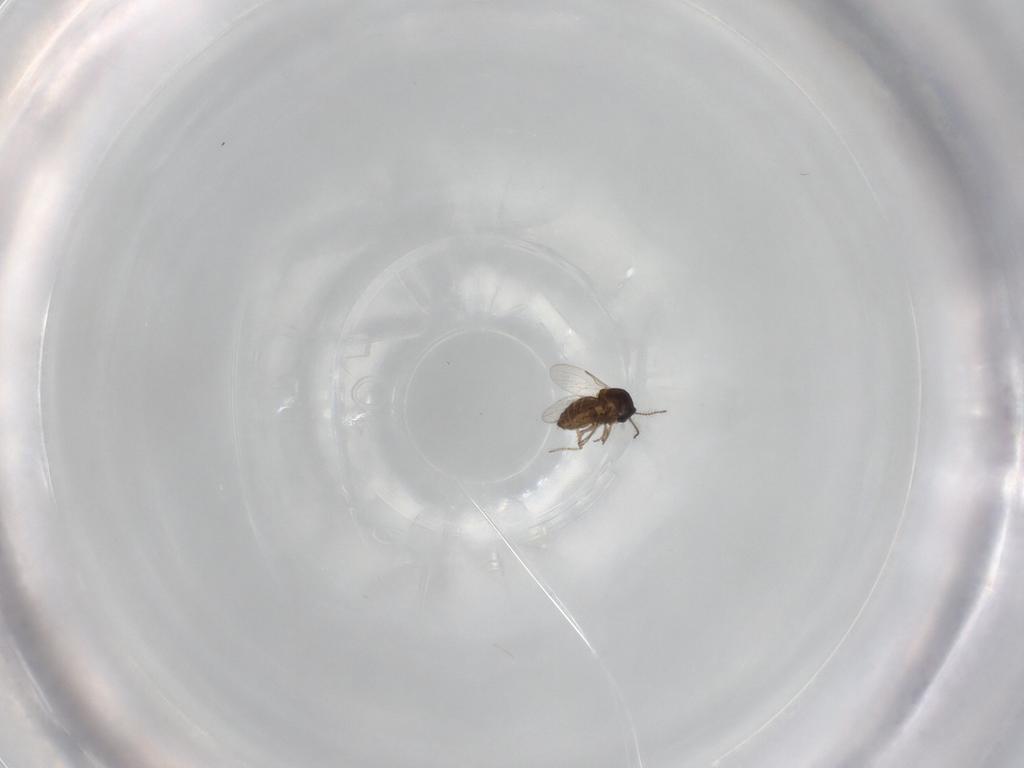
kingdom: Animalia
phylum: Arthropoda
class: Insecta
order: Diptera
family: Ceratopogonidae
